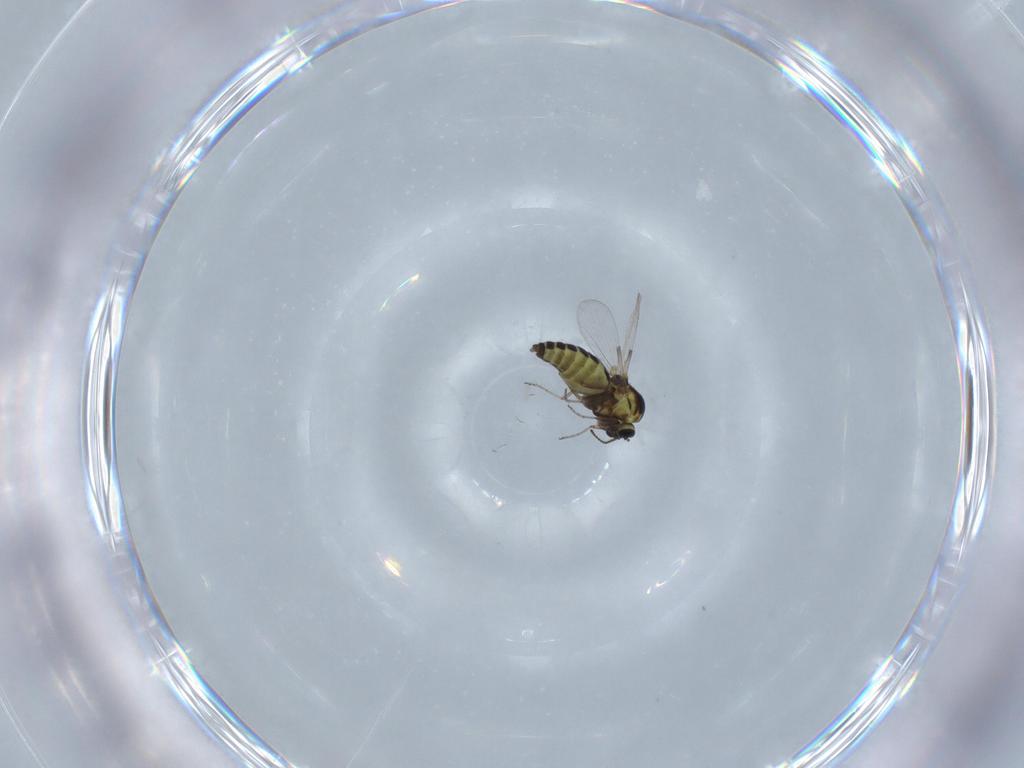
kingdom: Animalia
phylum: Arthropoda
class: Insecta
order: Diptera
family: Ceratopogonidae
